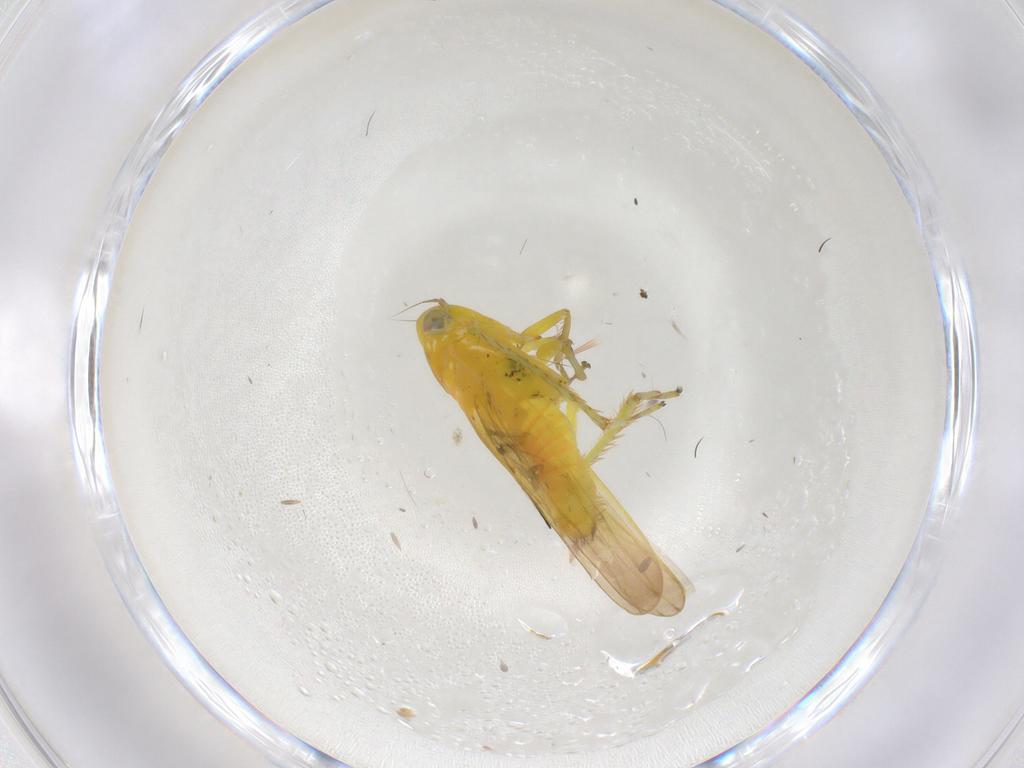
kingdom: Animalia
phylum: Arthropoda
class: Insecta
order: Hemiptera
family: Cicadellidae
